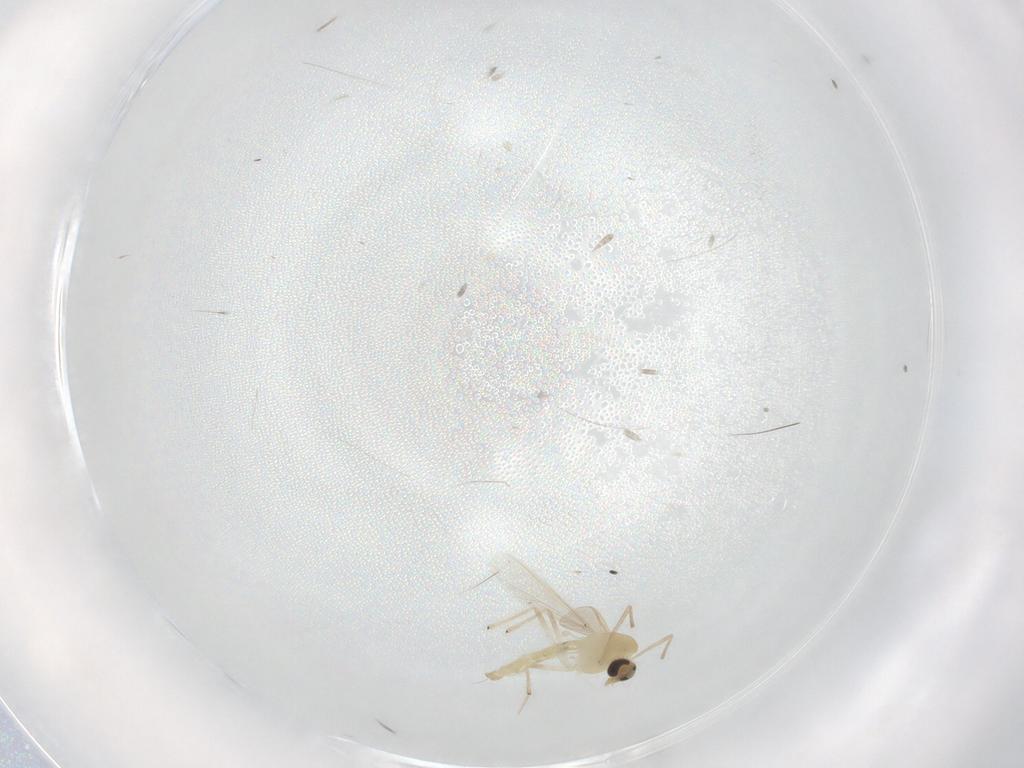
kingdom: Animalia
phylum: Arthropoda
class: Insecta
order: Diptera
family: Chironomidae
